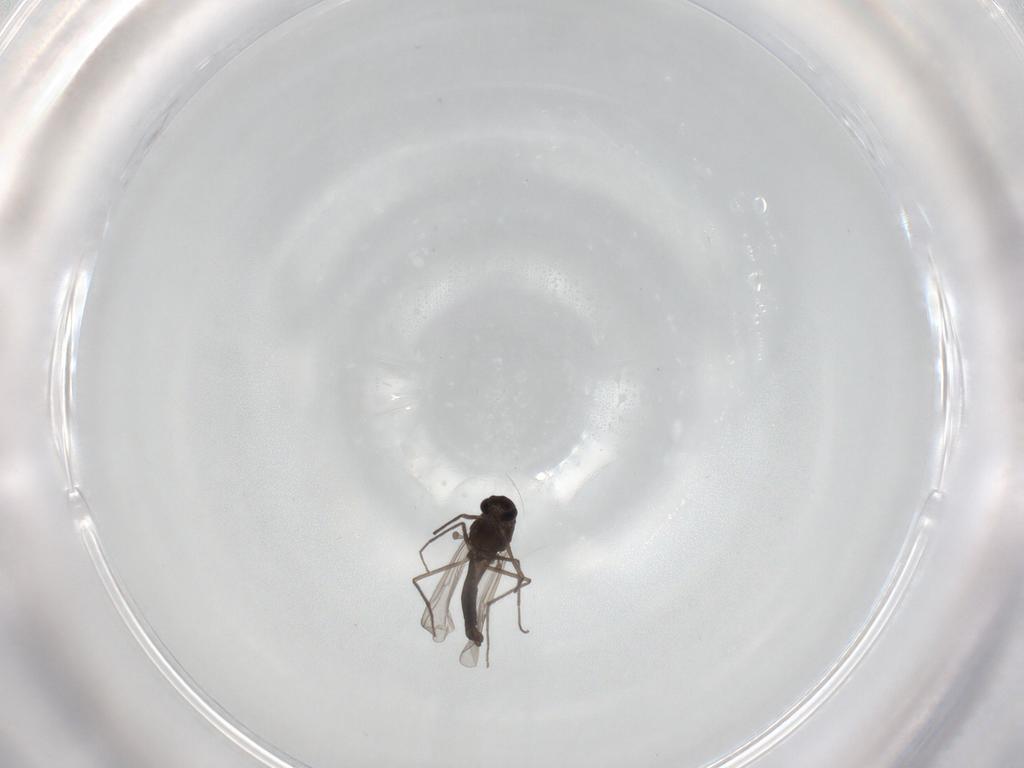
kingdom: Animalia
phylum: Arthropoda
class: Insecta
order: Diptera
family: Chironomidae
